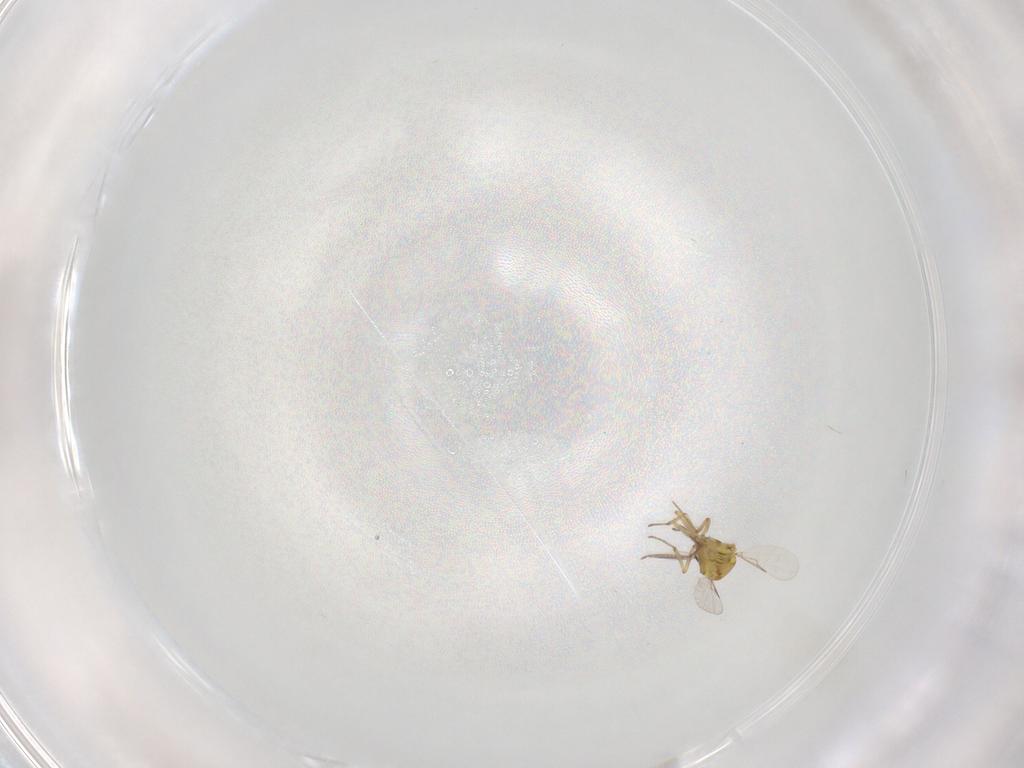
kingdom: Animalia
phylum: Arthropoda
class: Insecta
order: Diptera
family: Ceratopogonidae
